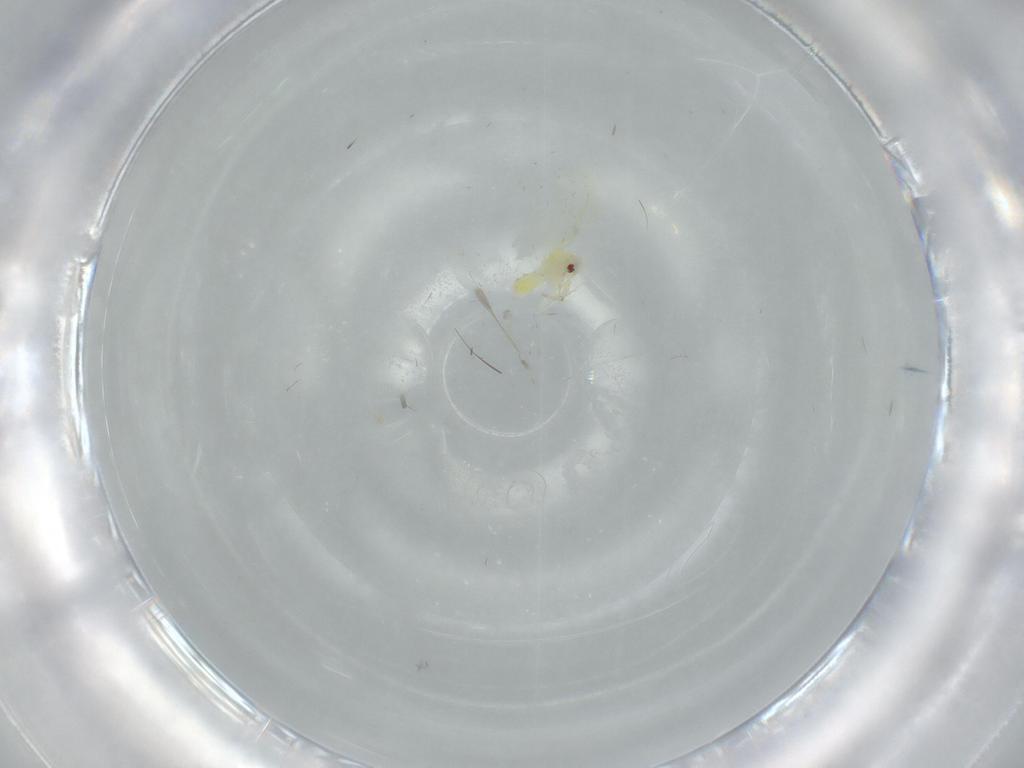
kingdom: Animalia
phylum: Arthropoda
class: Insecta
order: Hemiptera
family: Aleyrodidae
